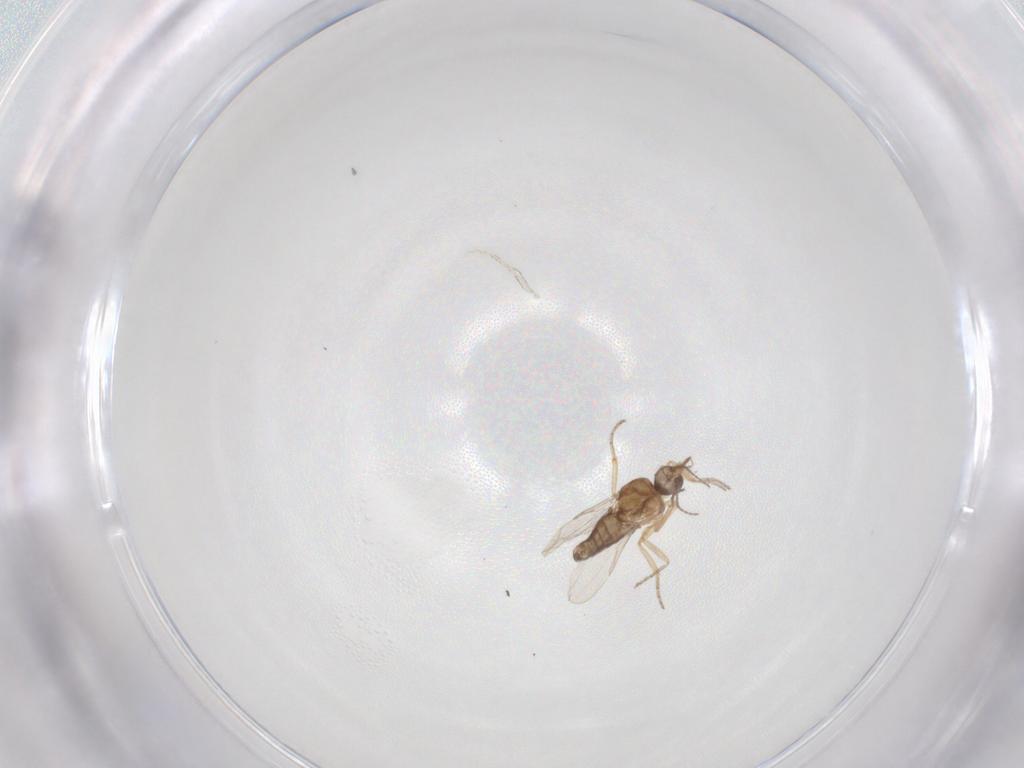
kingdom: Animalia
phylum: Arthropoda
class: Insecta
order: Diptera
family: Ceratopogonidae
